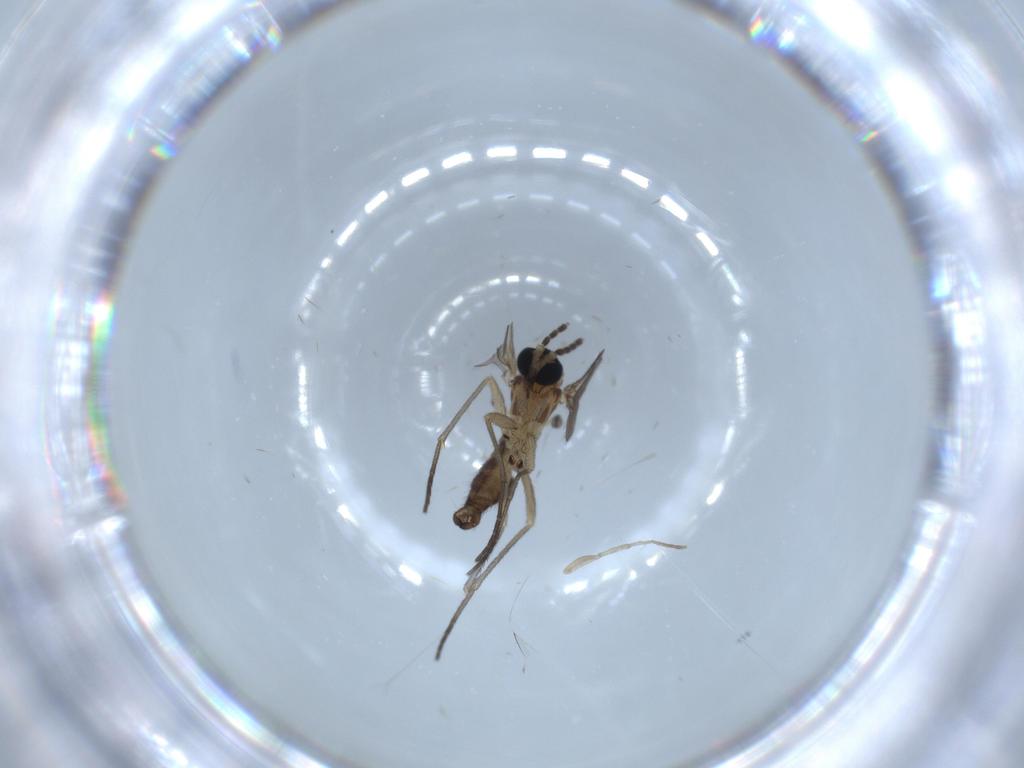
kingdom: Animalia
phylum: Arthropoda
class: Insecta
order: Diptera
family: Sciaridae
